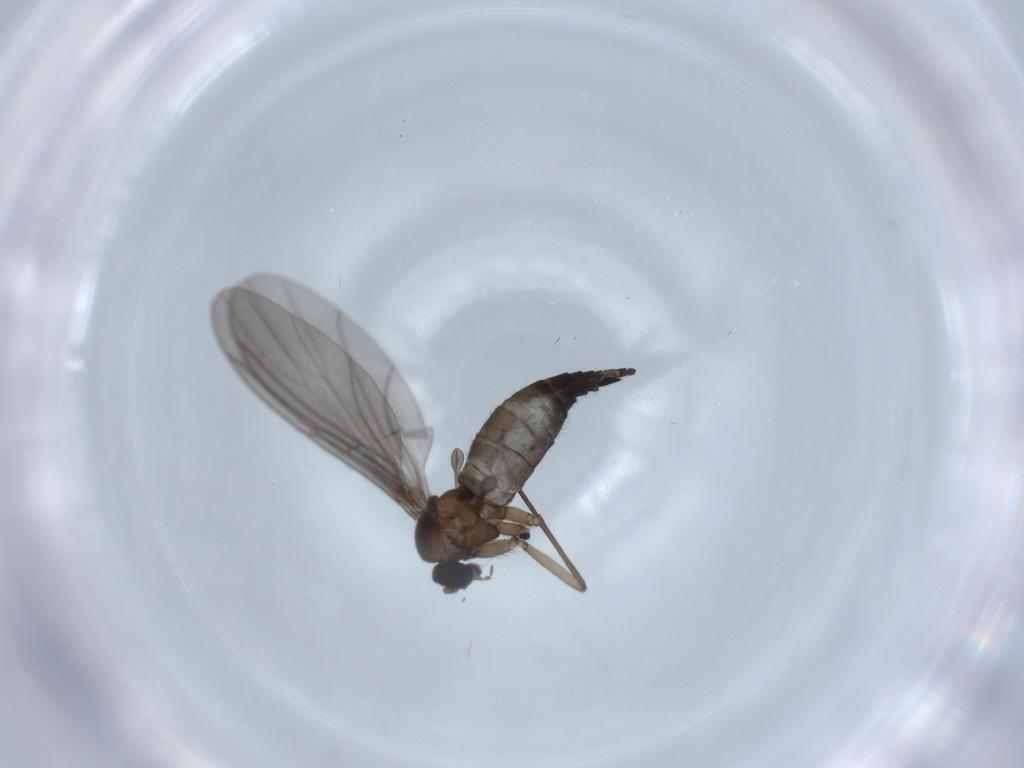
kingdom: Animalia
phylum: Arthropoda
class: Insecta
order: Diptera
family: Sciaridae
